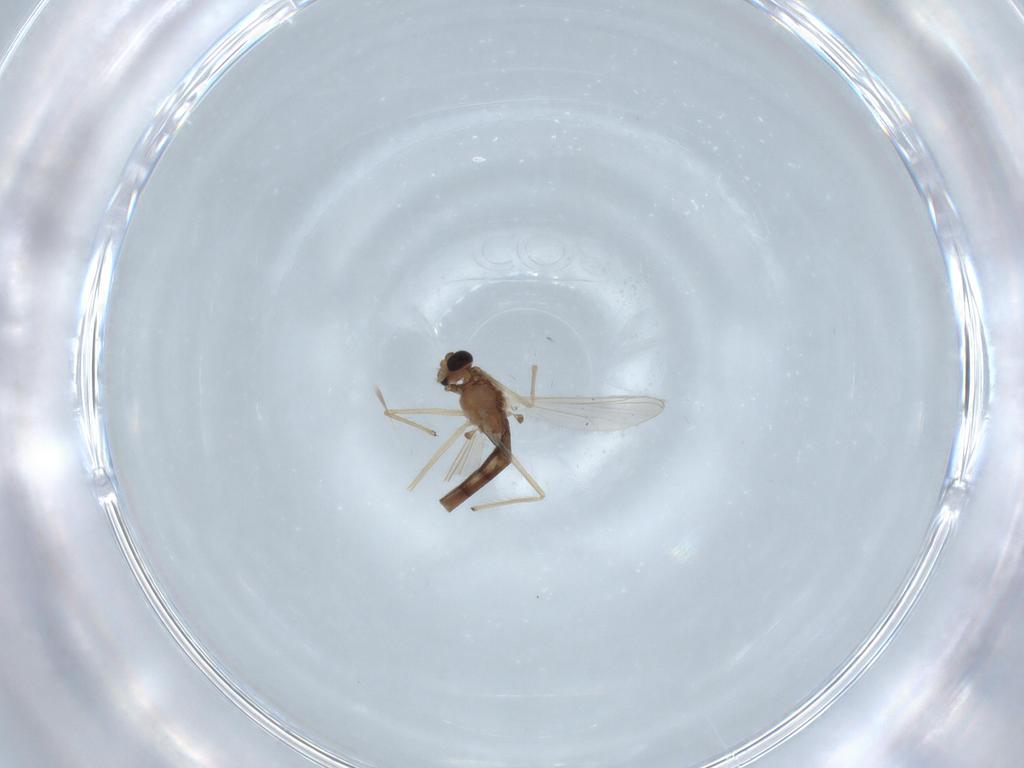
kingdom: Animalia
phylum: Arthropoda
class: Insecta
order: Diptera
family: Chironomidae
